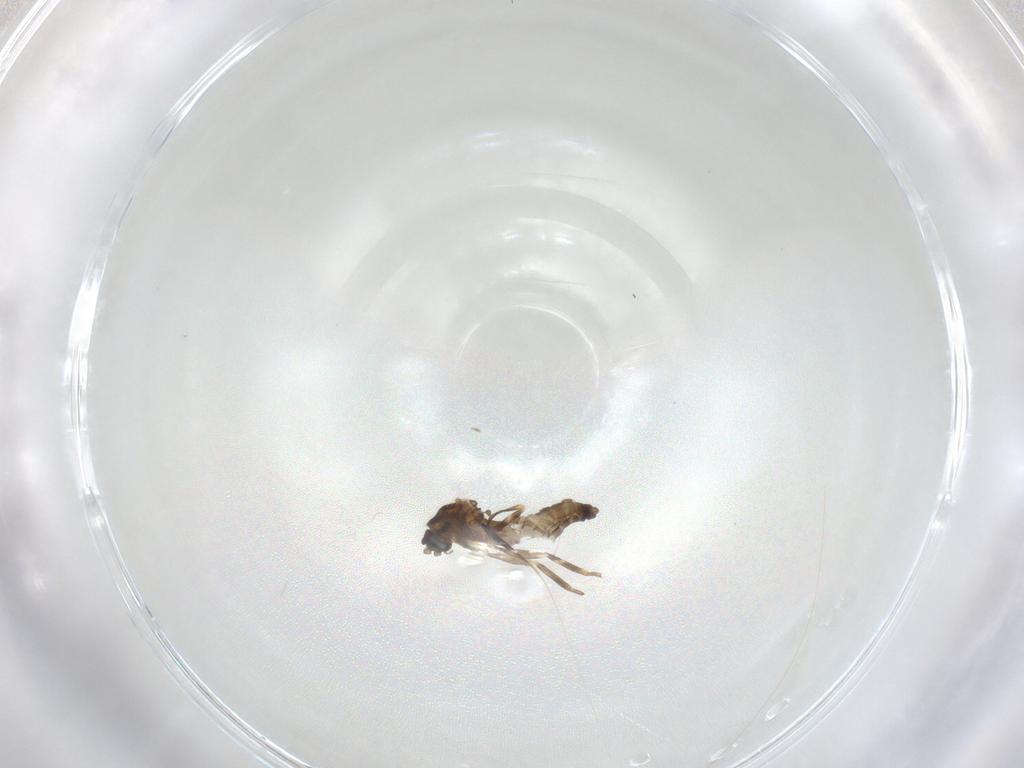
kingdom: Animalia
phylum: Arthropoda
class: Insecta
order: Diptera
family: Ceratopogonidae
